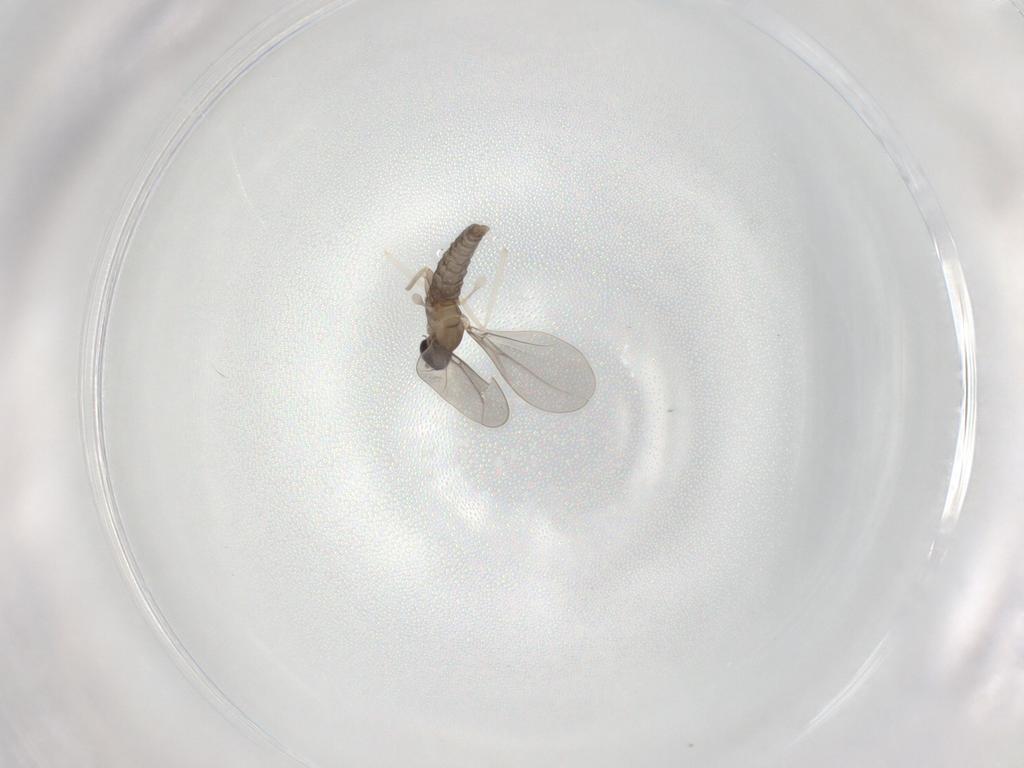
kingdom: Animalia
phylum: Arthropoda
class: Insecta
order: Diptera
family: Cecidomyiidae
